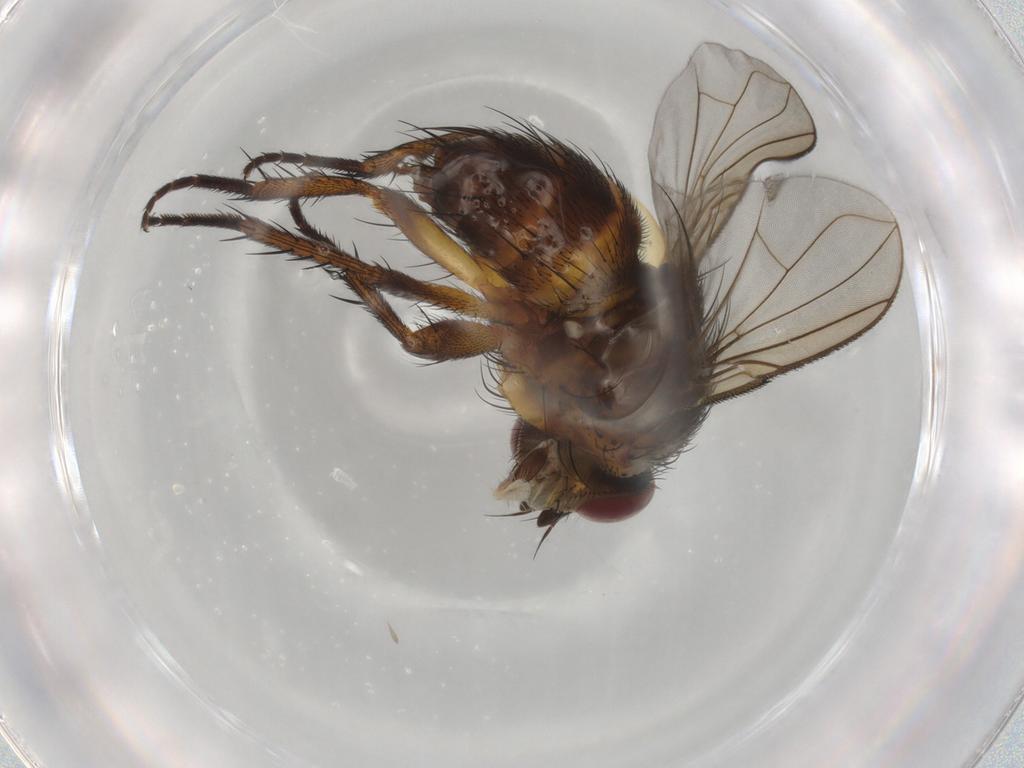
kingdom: Animalia
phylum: Arthropoda
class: Insecta
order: Diptera
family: Tachinidae
